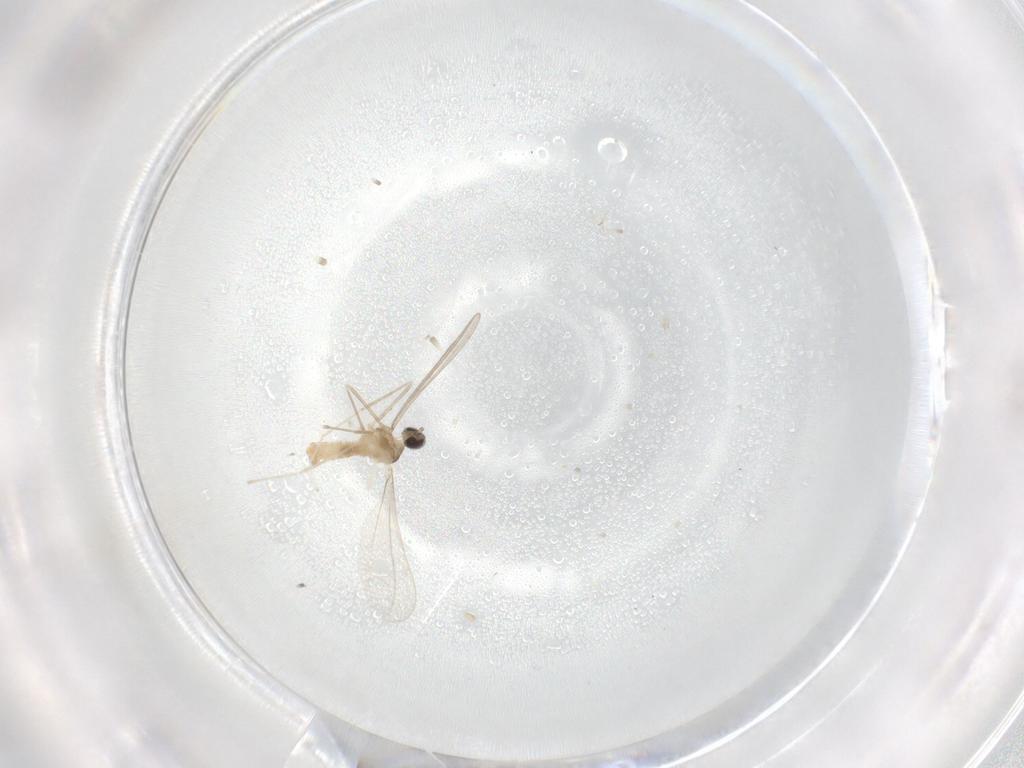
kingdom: Animalia
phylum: Arthropoda
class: Insecta
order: Diptera
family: Cecidomyiidae
